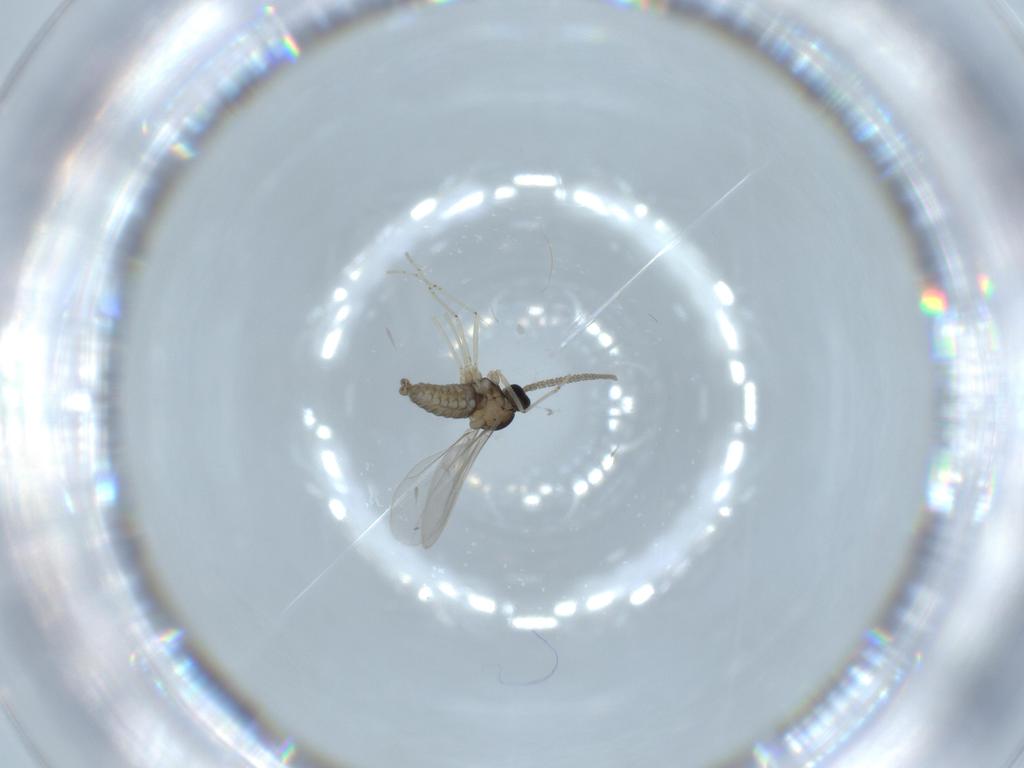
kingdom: Animalia
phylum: Arthropoda
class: Insecta
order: Diptera
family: Cecidomyiidae
